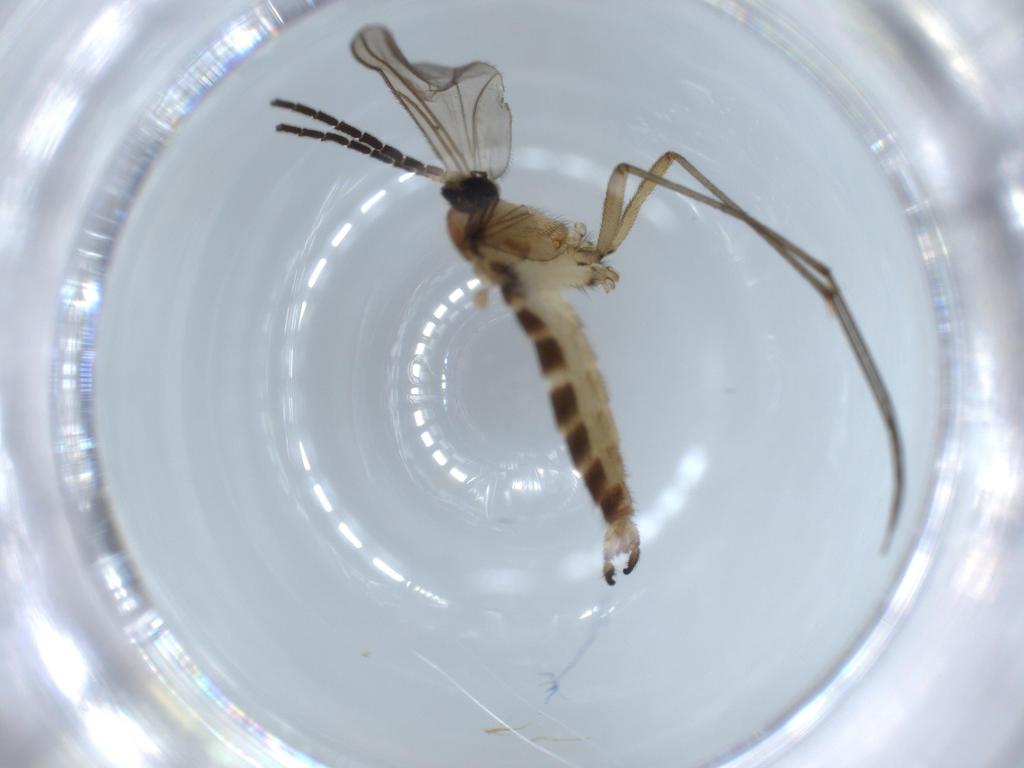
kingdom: Animalia
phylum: Arthropoda
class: Insecta
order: Diptera
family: Sciaridae
